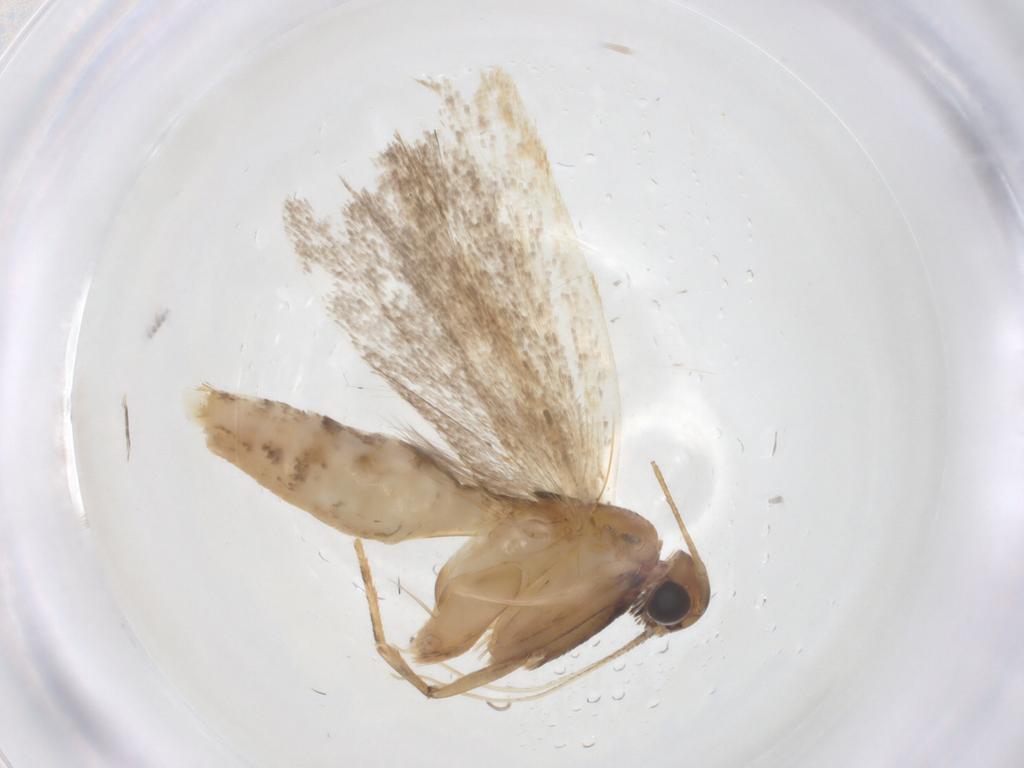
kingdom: Animalia
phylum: Arthropoda
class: Insecta
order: Lepidoptera
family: Gelechiidae
